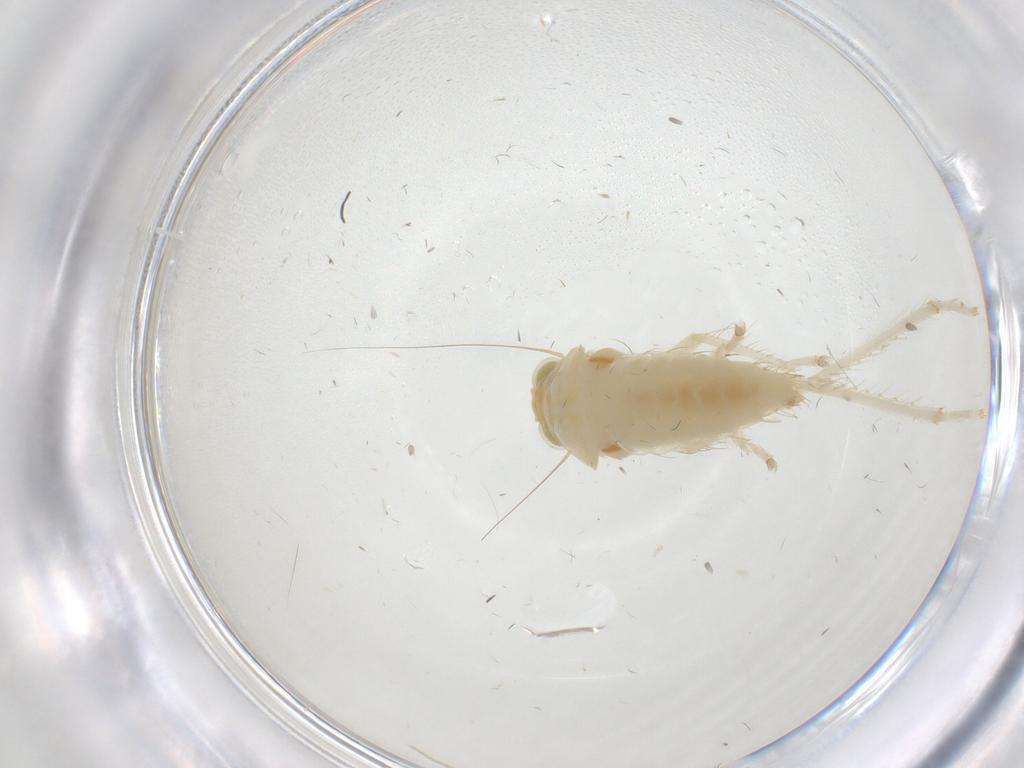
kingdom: Animalia
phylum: Arthropoda
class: Insecta
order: Hemiptera
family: Cicadellidae
